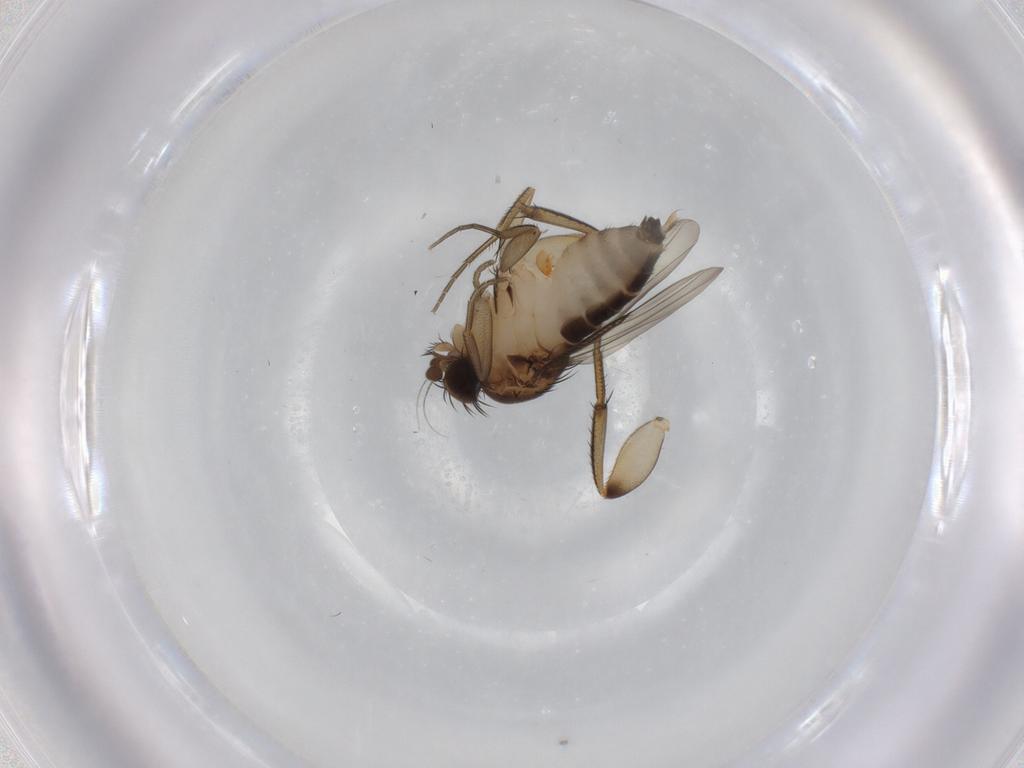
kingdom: Animalia
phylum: Arthropoda
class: Insecta
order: Diptera
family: Phoridae
